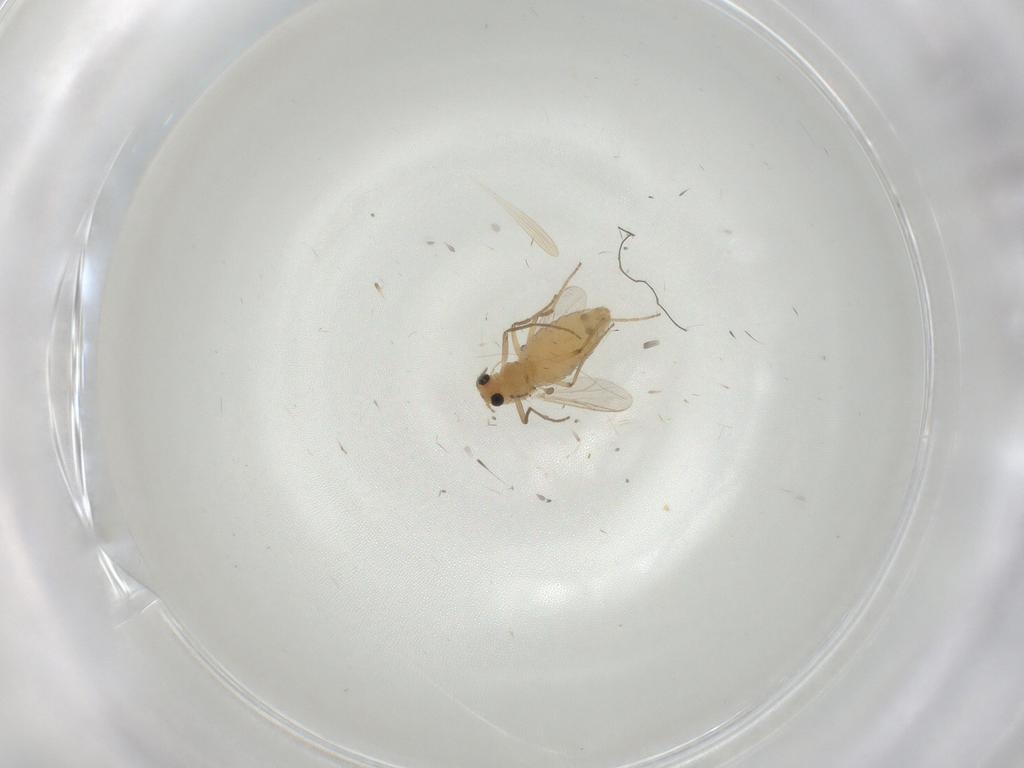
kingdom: Animalia
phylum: Arthropoda
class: Insecta
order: Diptera
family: Chironomidae
